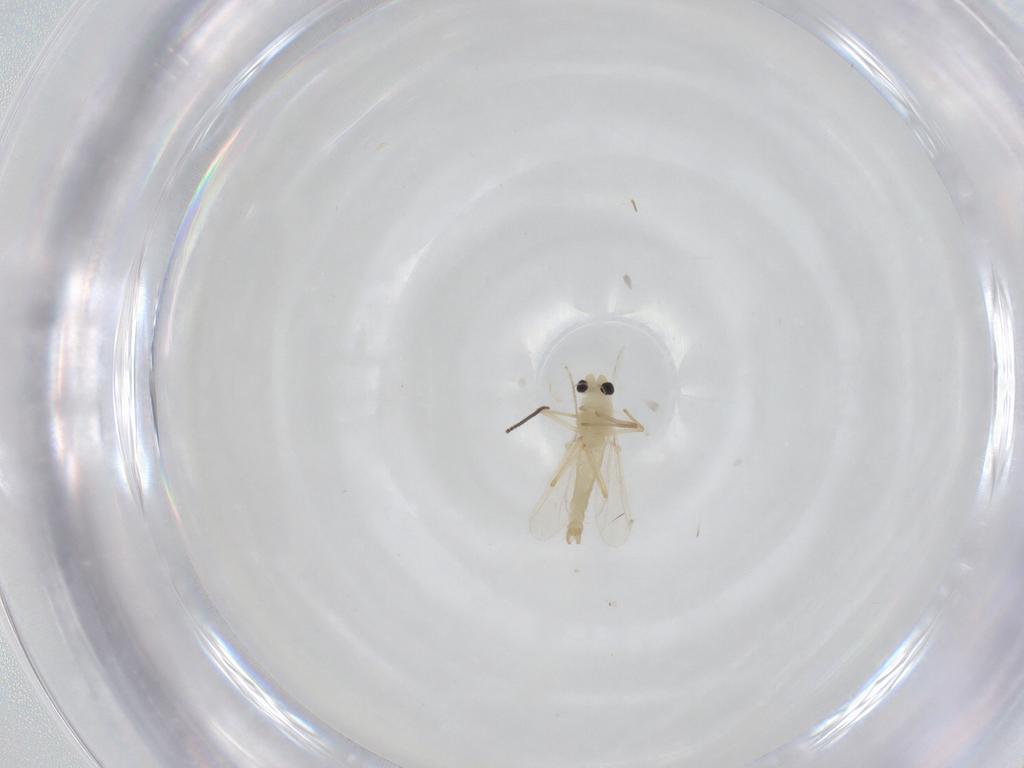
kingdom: Animalia
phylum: Arthropoda
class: Insecta
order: Diptera
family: Chironomidae
